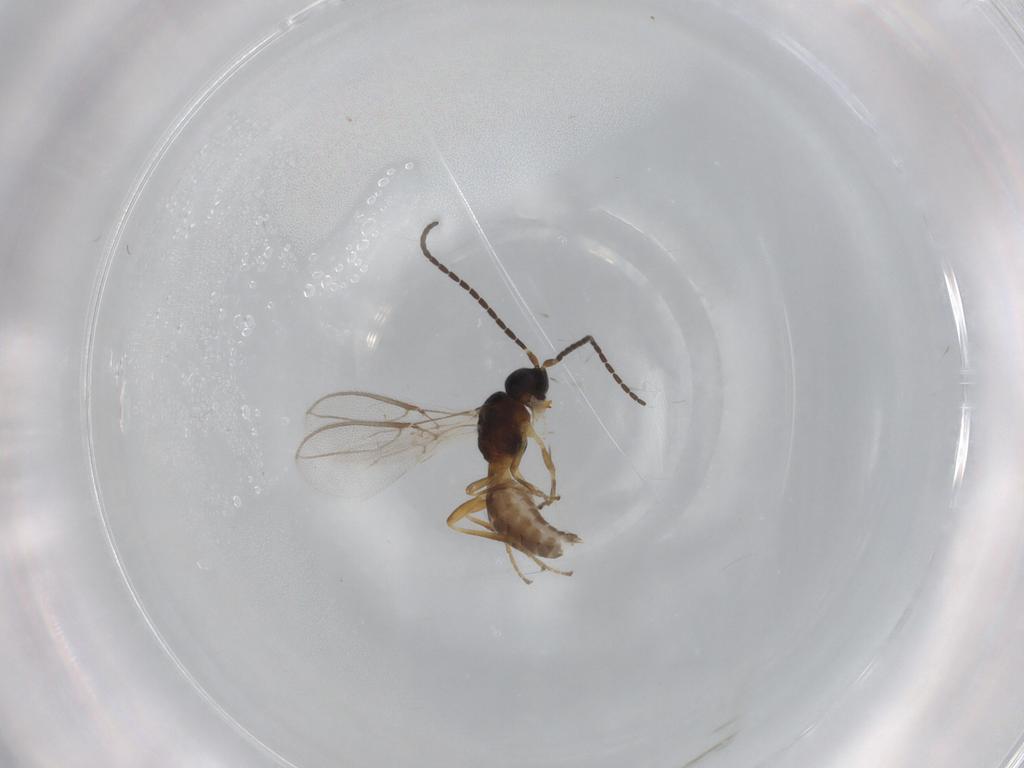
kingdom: Animalia
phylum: Arthropoda
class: Insecta
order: Hymenoptera
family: Braconidae
